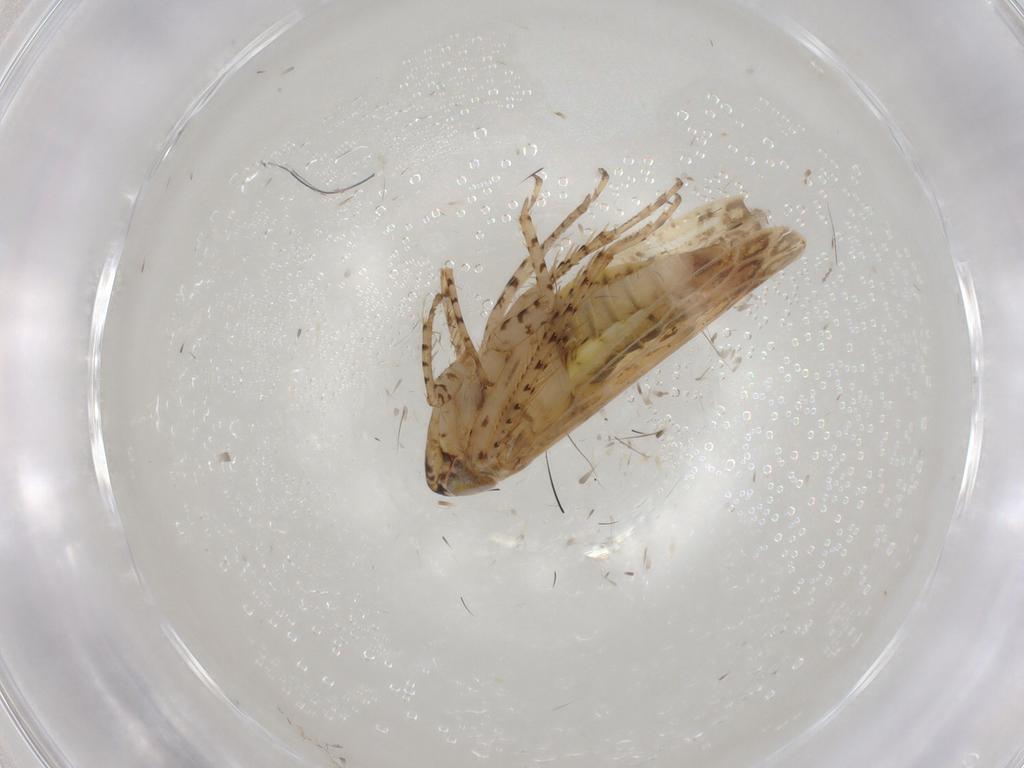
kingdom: Animalia
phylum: Arthropoda
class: Insecta
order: Hemiptera
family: Cicadellidae
